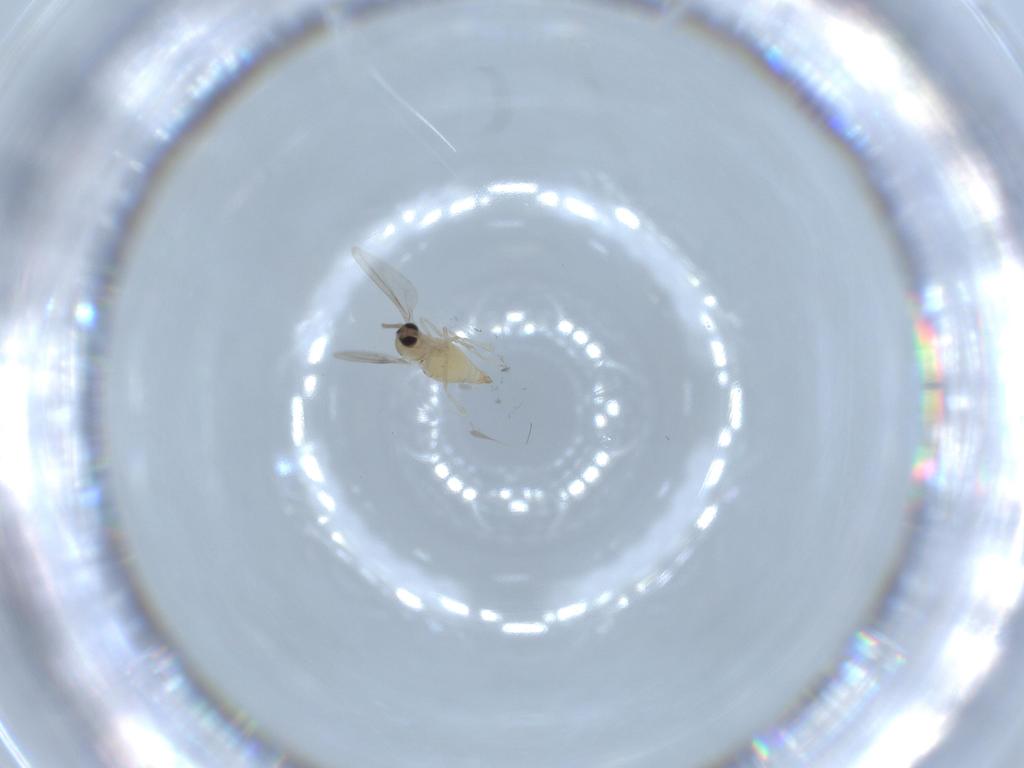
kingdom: Animalia
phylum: Arthropoda
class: Insecta
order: Diptera
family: Cecidomyiidae
